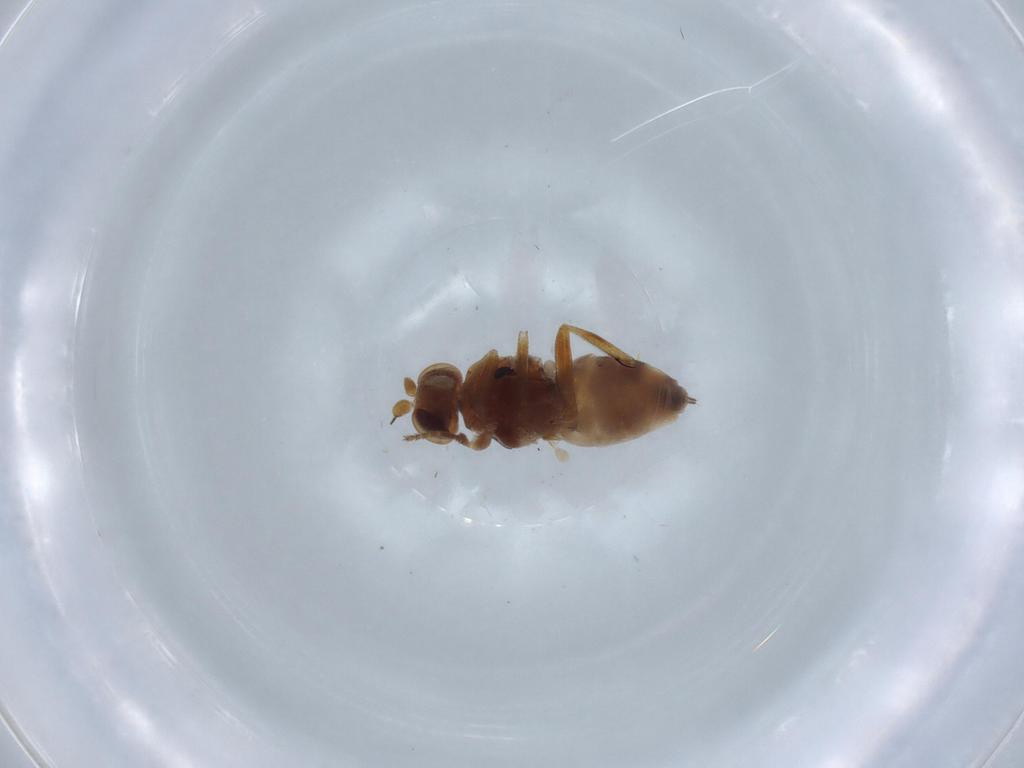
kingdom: Animalia
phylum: Arthropoda
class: Insecta
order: Diptera
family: Chloropidae
